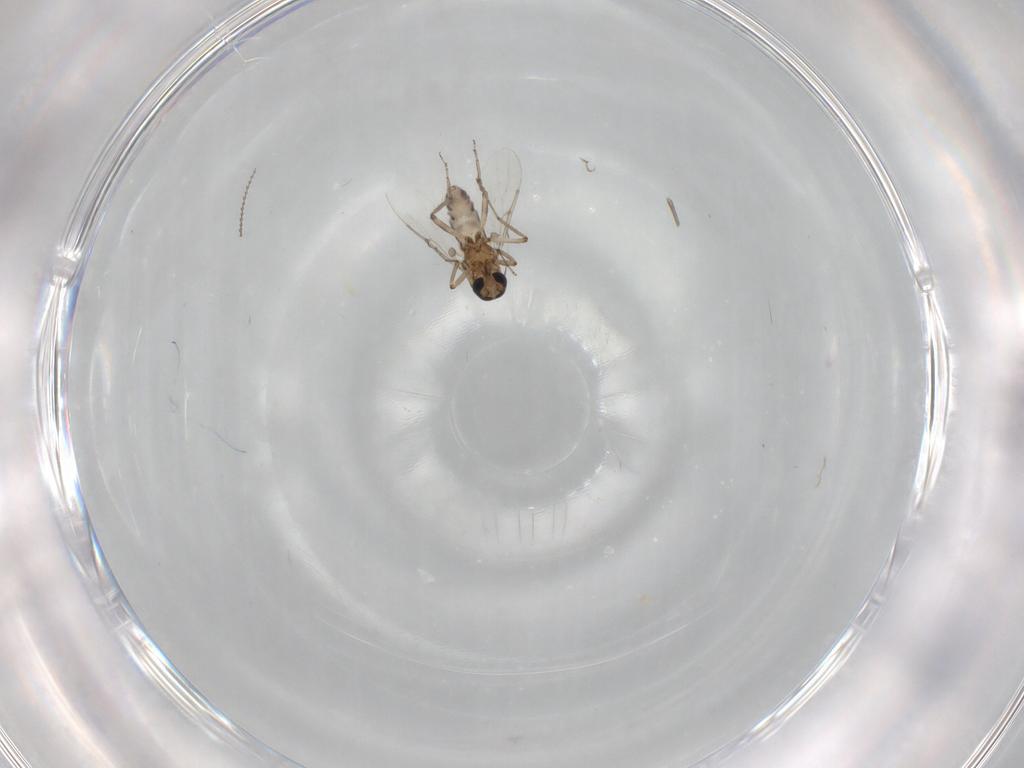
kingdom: Animalia
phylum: Arthropoda
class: Insecta
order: Diptera
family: Ceratopogonidae
